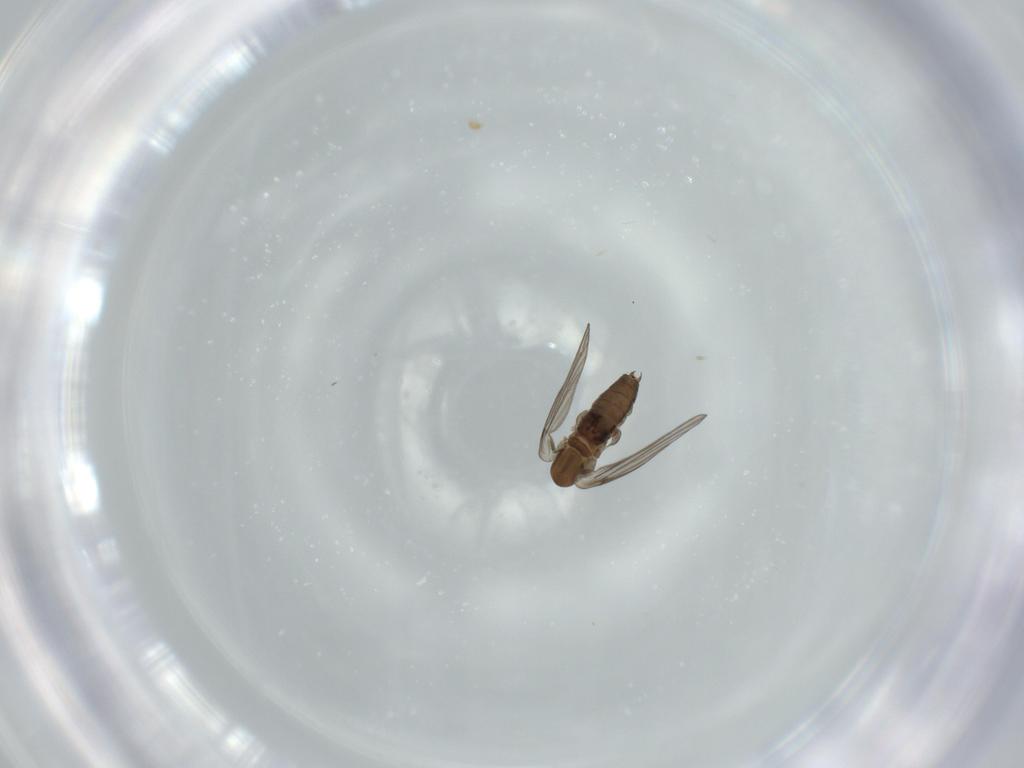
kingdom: Animalia
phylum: Arthropoda
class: Insecta
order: Diptera
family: Psychodidae
